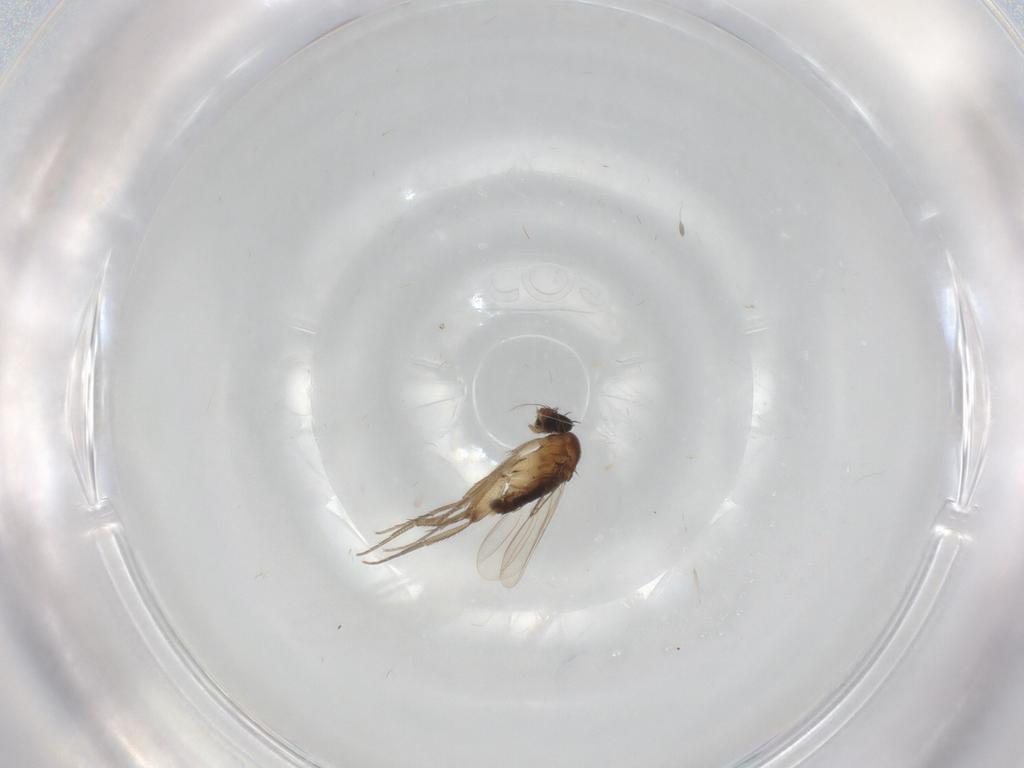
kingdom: Animalia
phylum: Arthropoda
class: Insecta
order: Diptera
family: Phoridae
